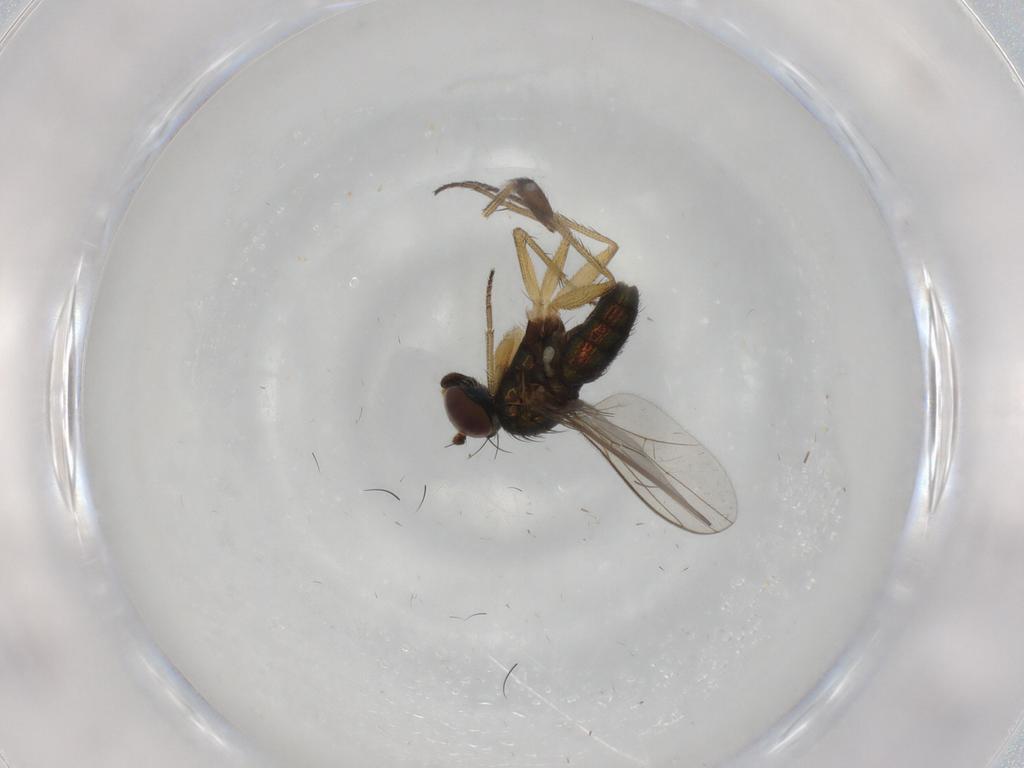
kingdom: Animalia
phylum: Arthropoda
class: Insecta
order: Diptera
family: Dolichopodidae
